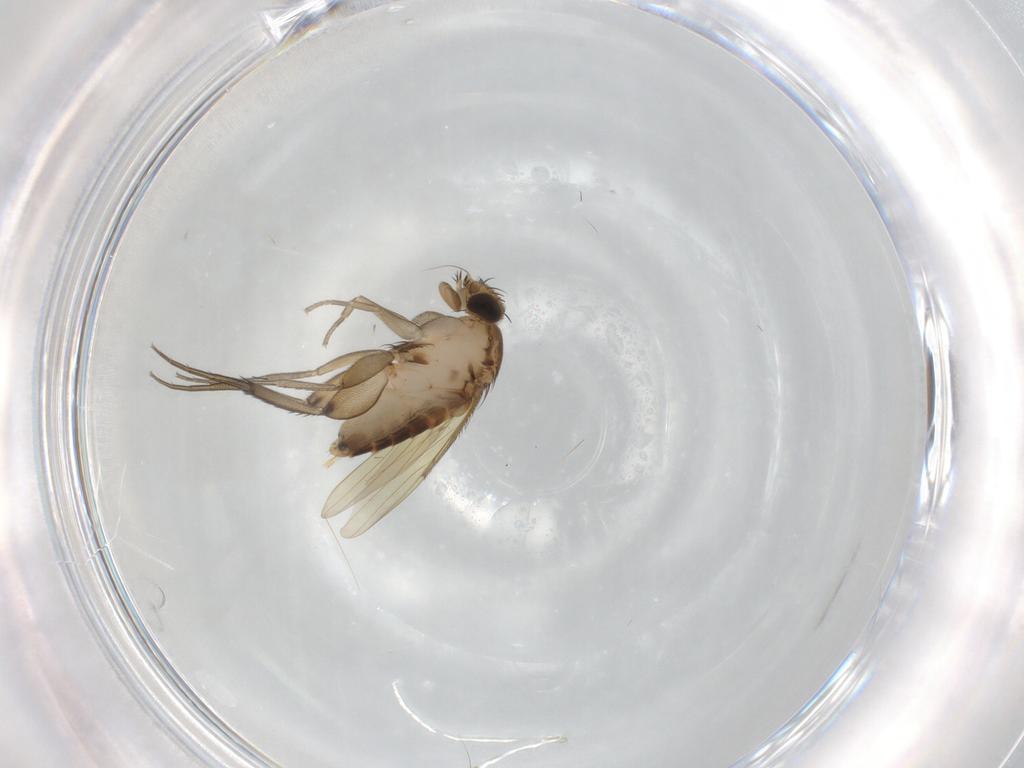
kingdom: Animalia
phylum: Arthropoda
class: Insecta
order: Diptera
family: Phoridae
